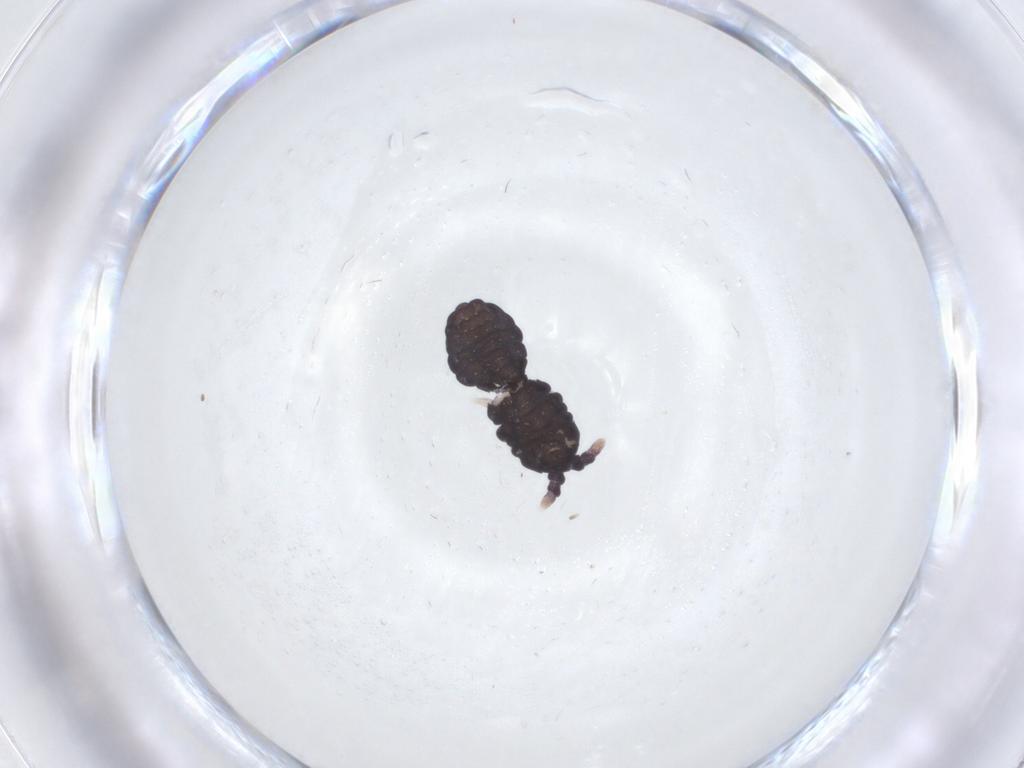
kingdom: Animalia
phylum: Arthropoda
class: Collembola
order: Poduromorpha
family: Neanuridae
